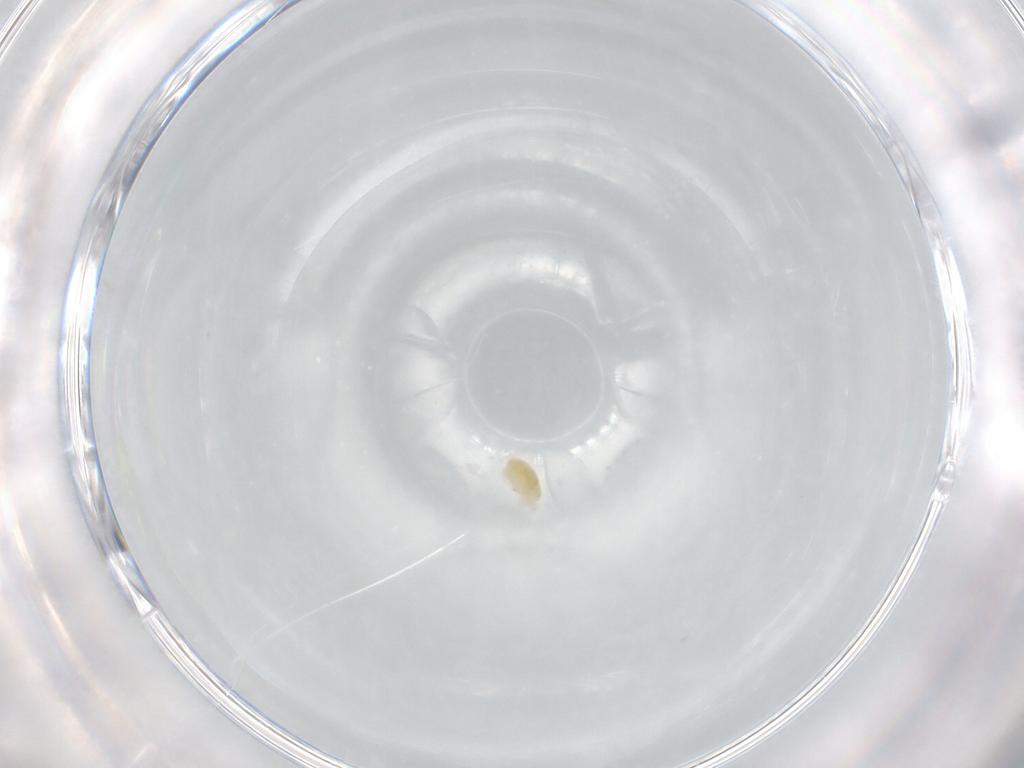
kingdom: Animalia
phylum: Arthropoda
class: Arachnida
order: Trombidiformes
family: Eupodidae
